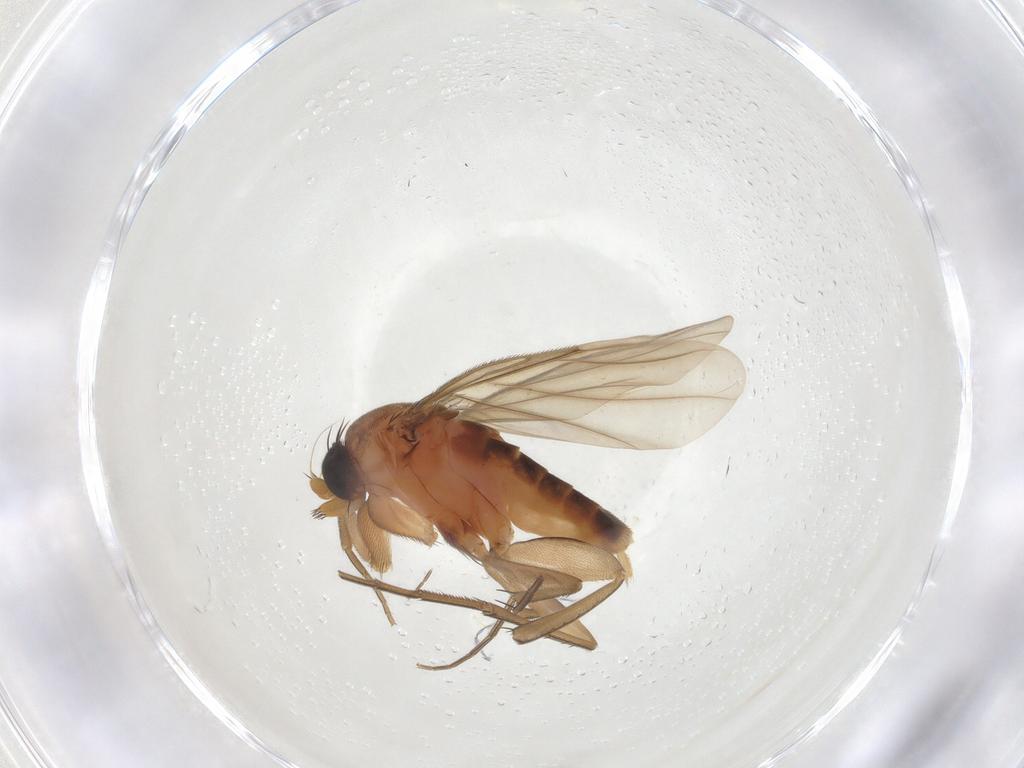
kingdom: Animalia
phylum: Arthropoda
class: Insecta
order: Diptera
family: Phoridae
